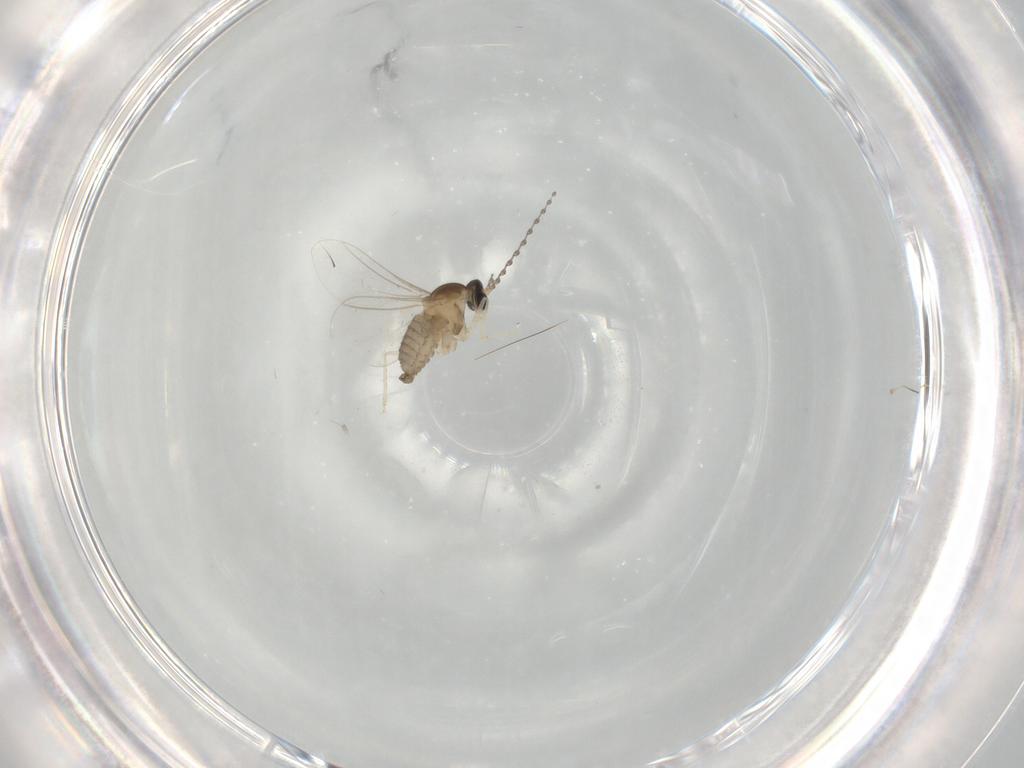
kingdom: Animalia
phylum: Arthropoda
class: Insecta
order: Diptera
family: Cecidomyiidae
